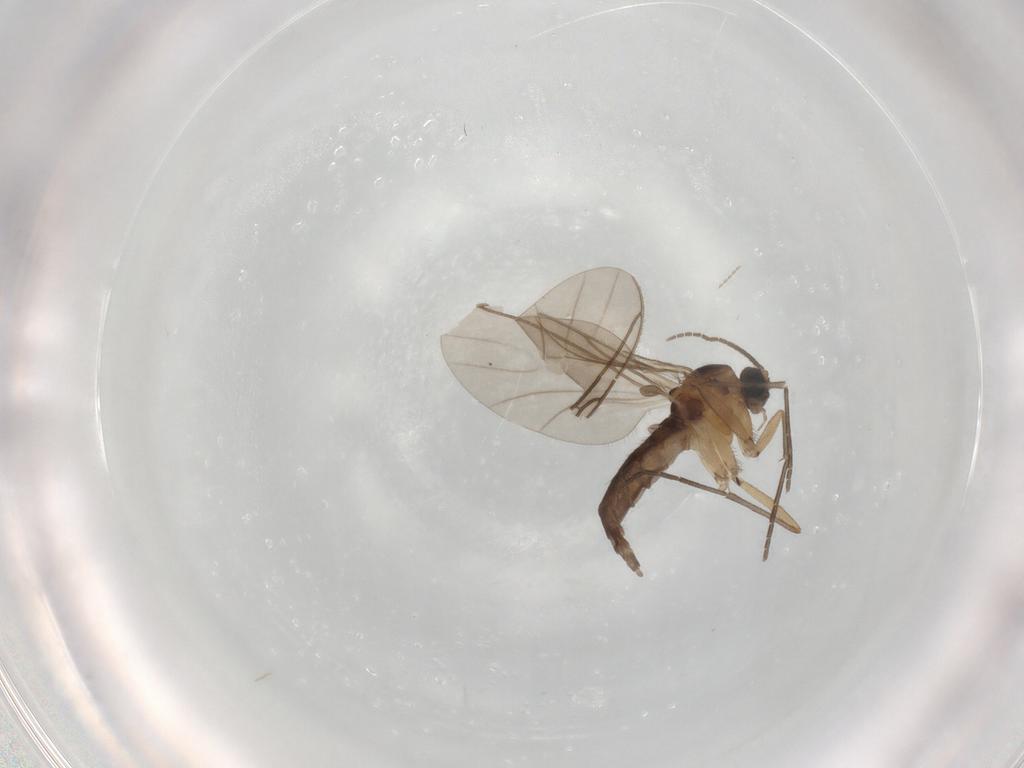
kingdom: Animalia
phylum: Arthropoda
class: Insecta
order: Diptera
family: Sciaridae
